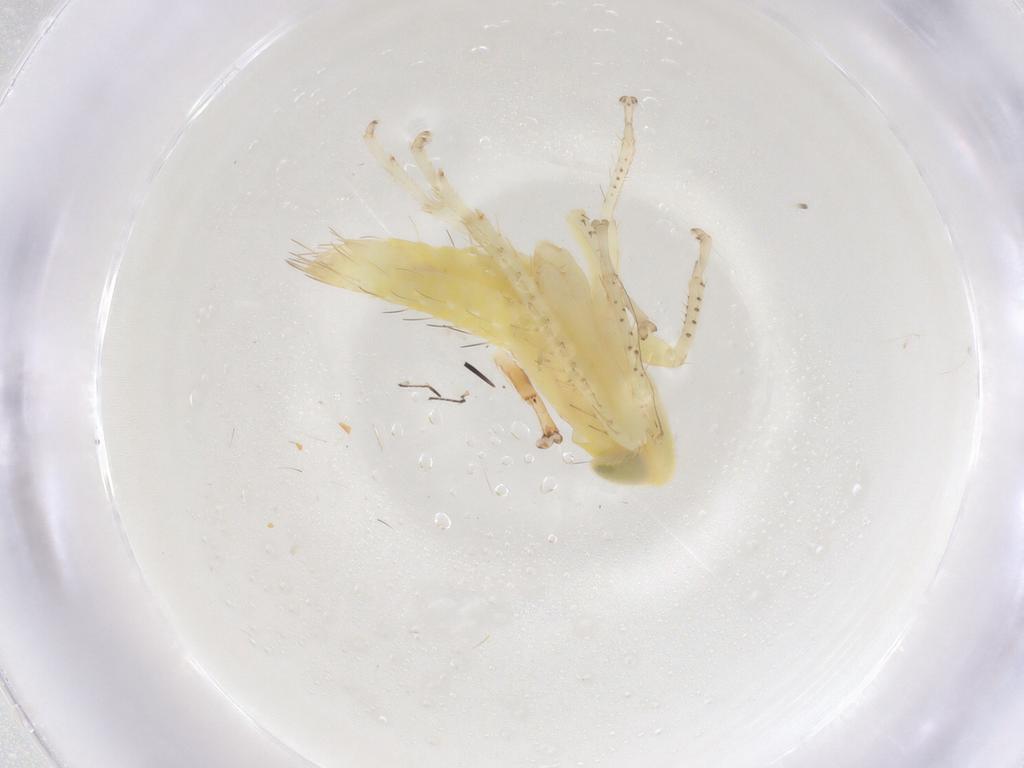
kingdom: Animalia
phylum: Arthropoda
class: Insecta
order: Hemiptera
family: Cicadellidae
